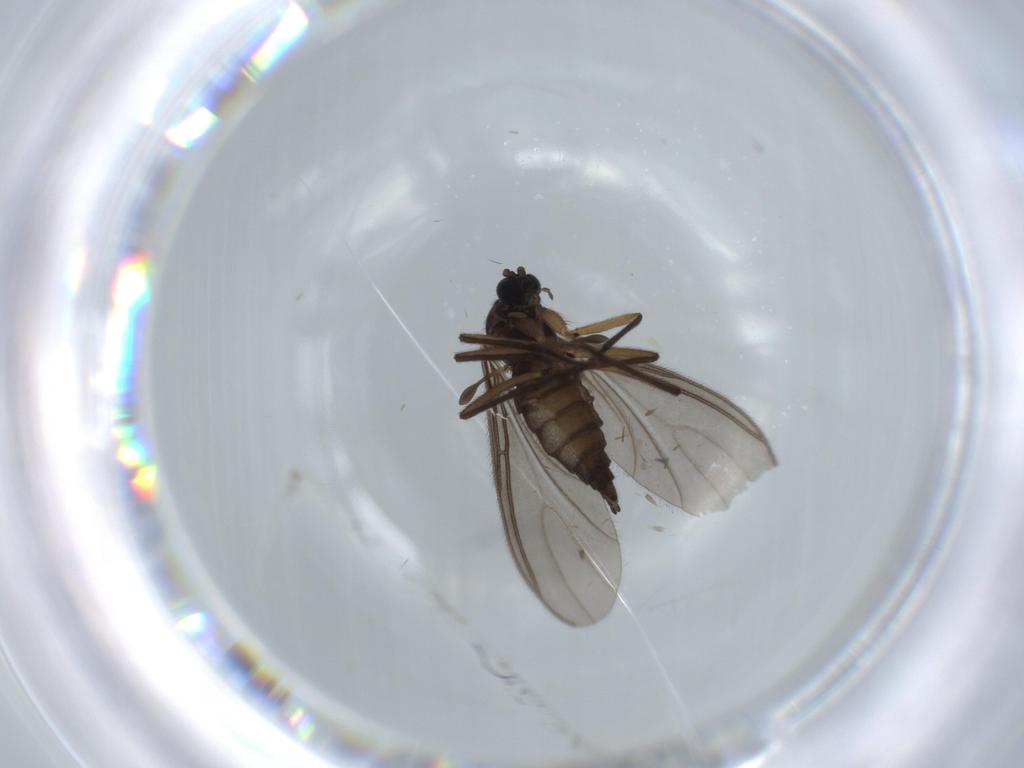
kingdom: Animalia
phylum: Arthropoda
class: Insecta
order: Diptera
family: Sciaridae
